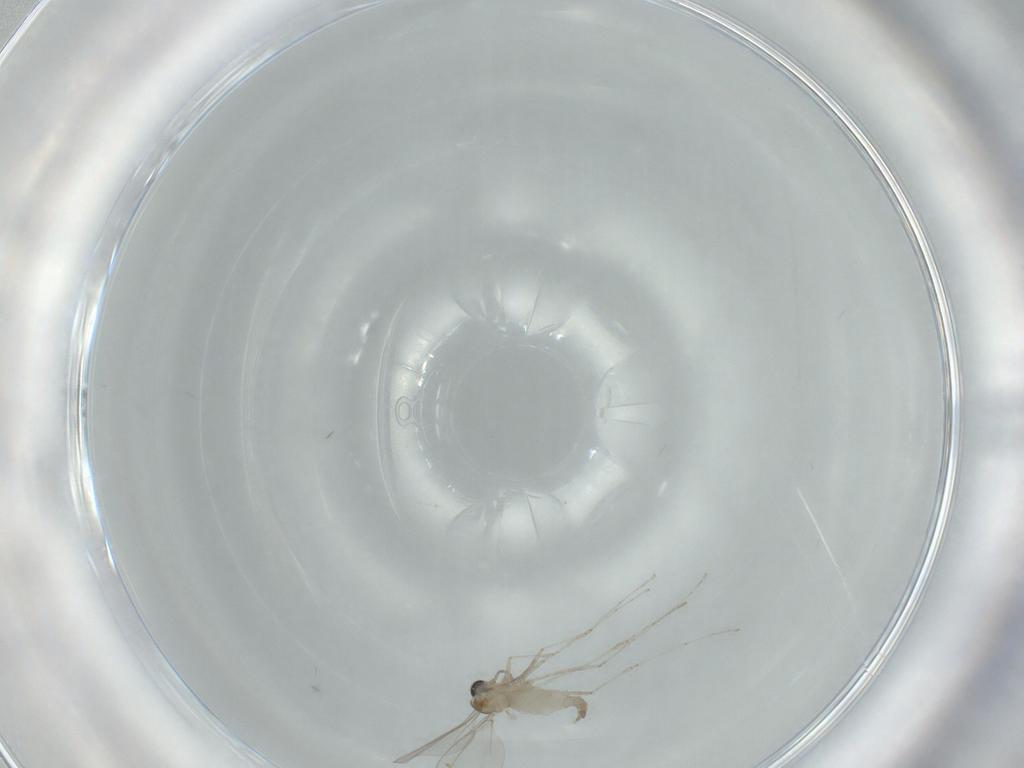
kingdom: Animalia
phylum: Arthropoda
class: Insecta
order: Diptera
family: Cecidomyiidae
